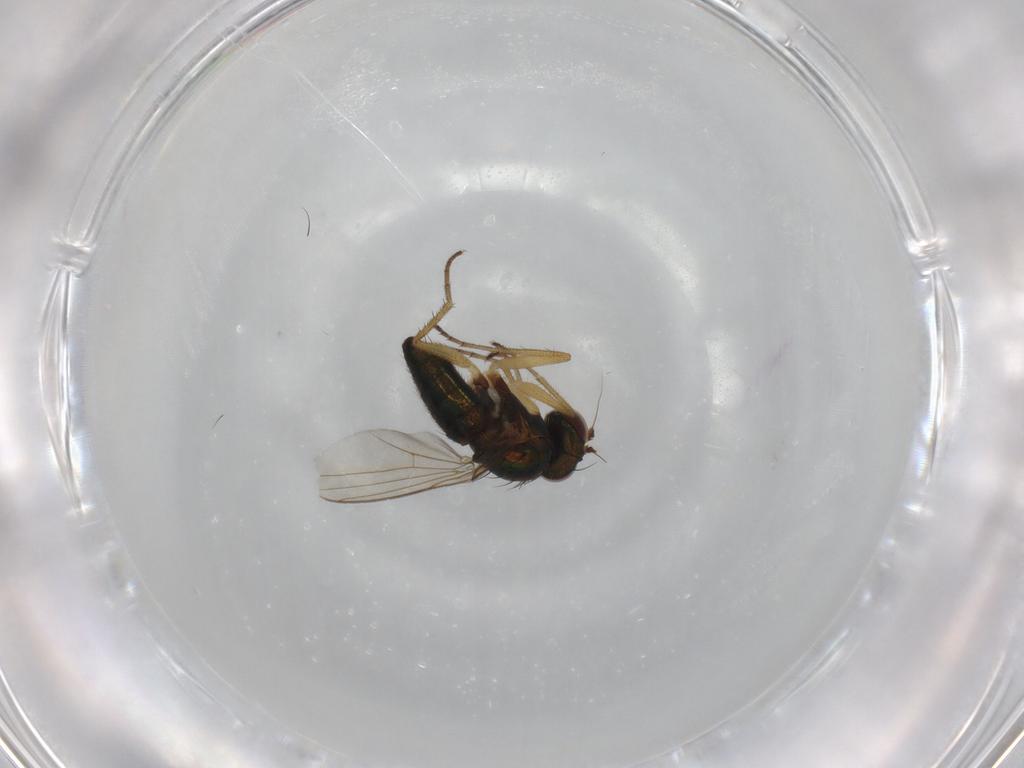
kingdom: Animalia
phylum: Arthropoda
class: Insecta
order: Diptera
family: Dolichopodidae
